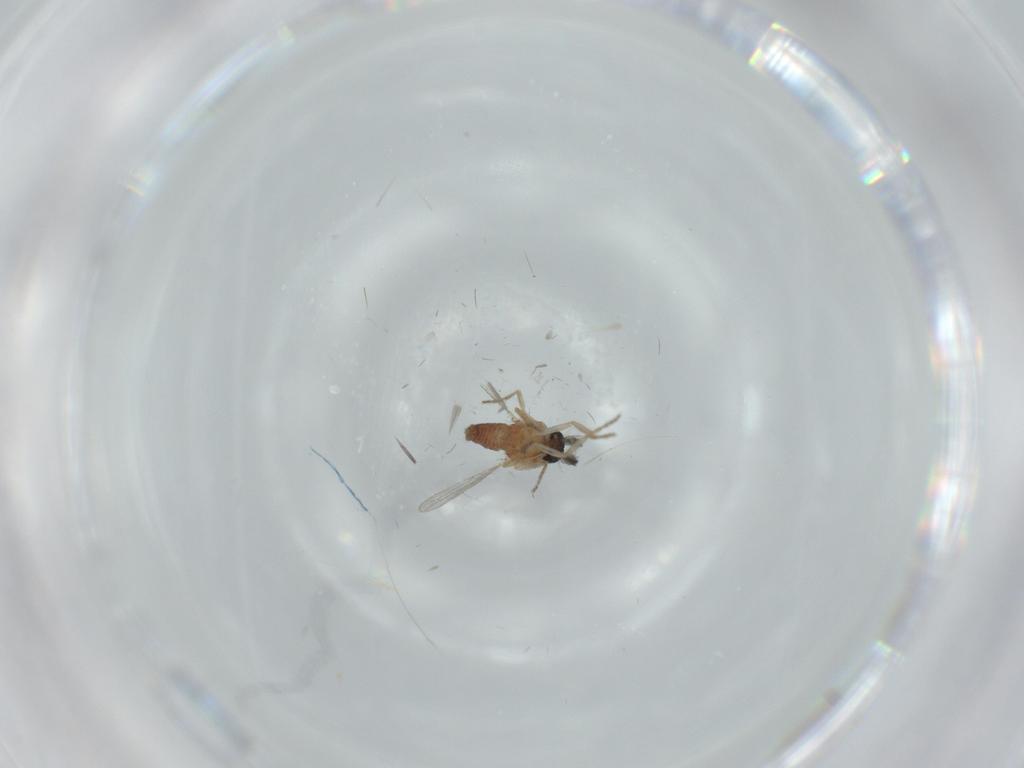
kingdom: Animalia
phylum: Arthropoda
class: Insecta
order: Diptera
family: Ceratopogonidae
